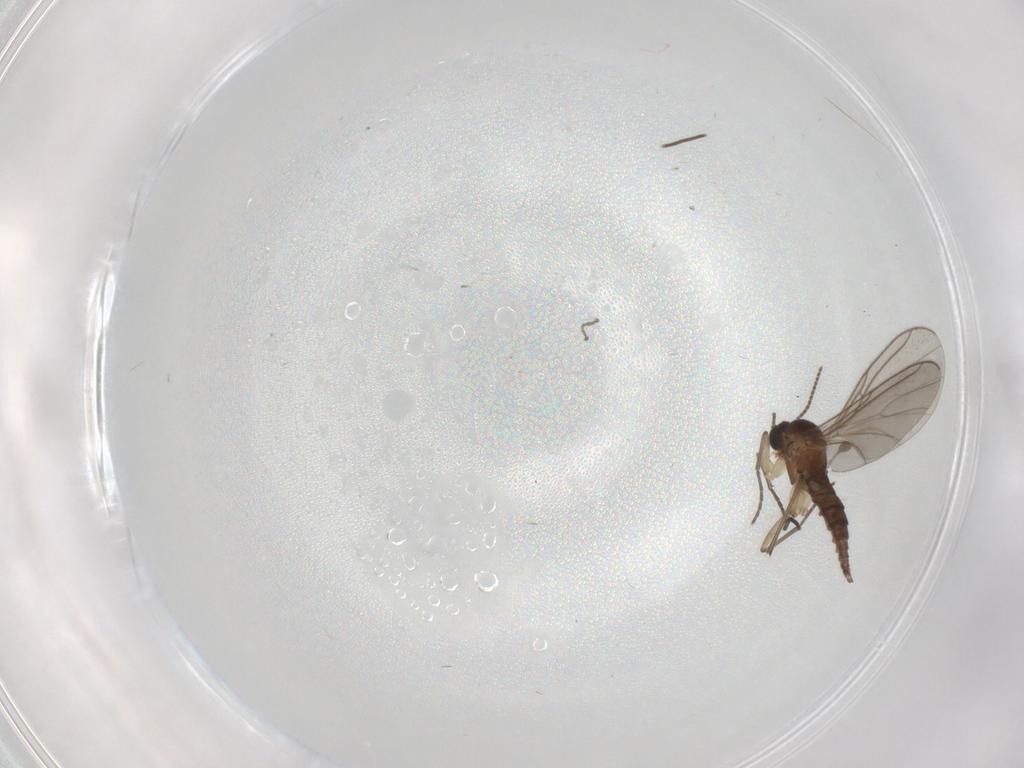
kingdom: Animalia
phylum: Arthropoda
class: Insecta
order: Diptera
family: Sciaridae
